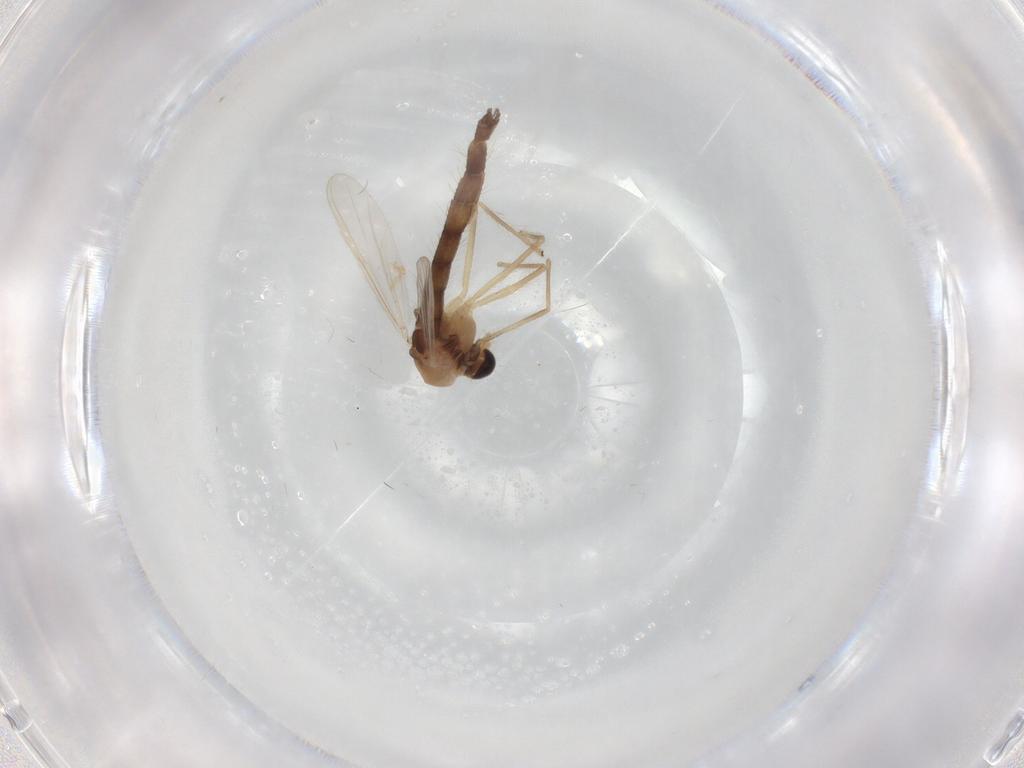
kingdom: Animalia
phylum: Arthropoda
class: Insecta
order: Diptera
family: Chironomidae
